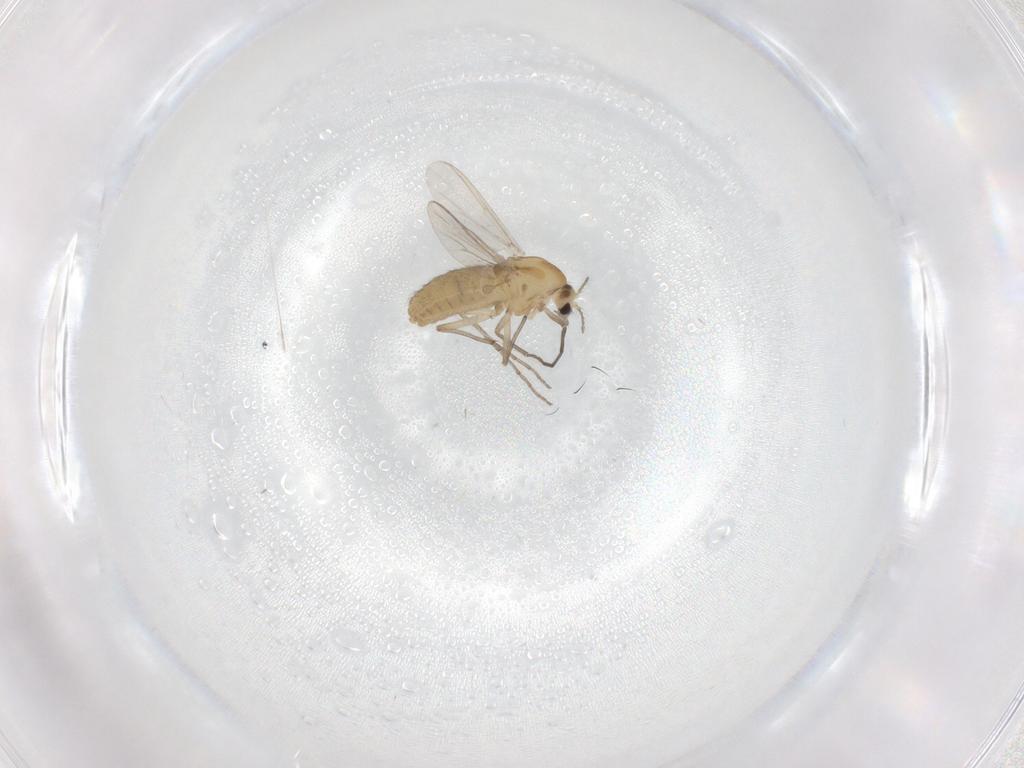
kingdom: Animalia
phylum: Arthropoda
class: Insecta
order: Diptera
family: Chironomidae
